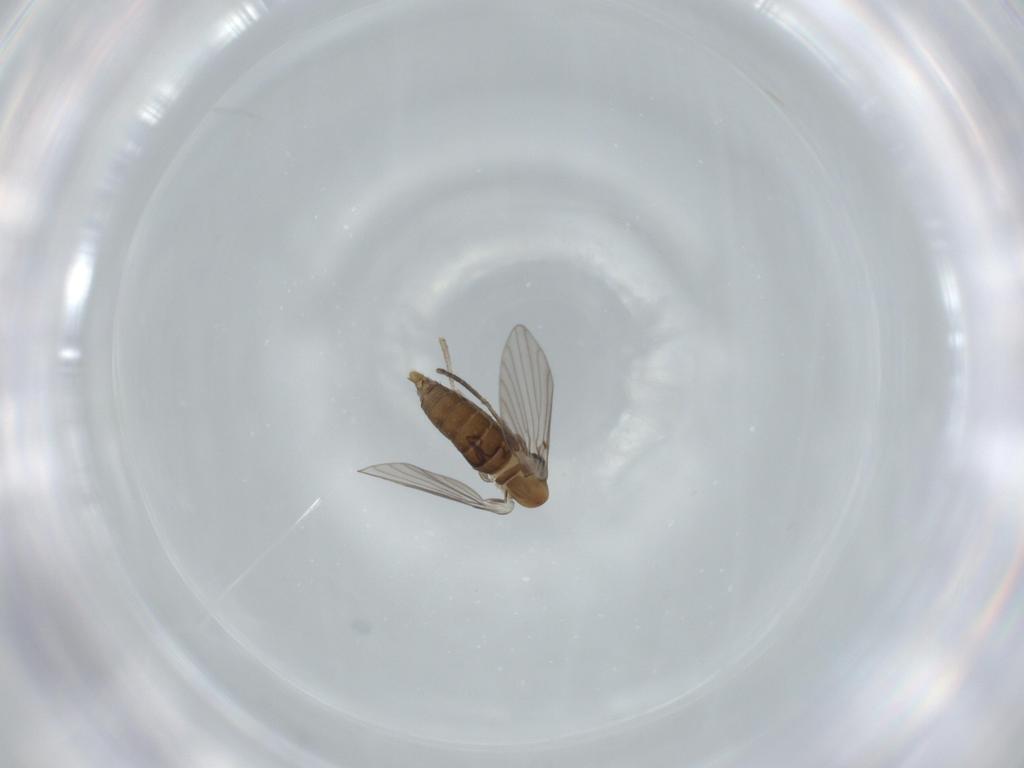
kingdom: Animalia
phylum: Arthropoda
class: Insecta
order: Diptera
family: Psychodidae
